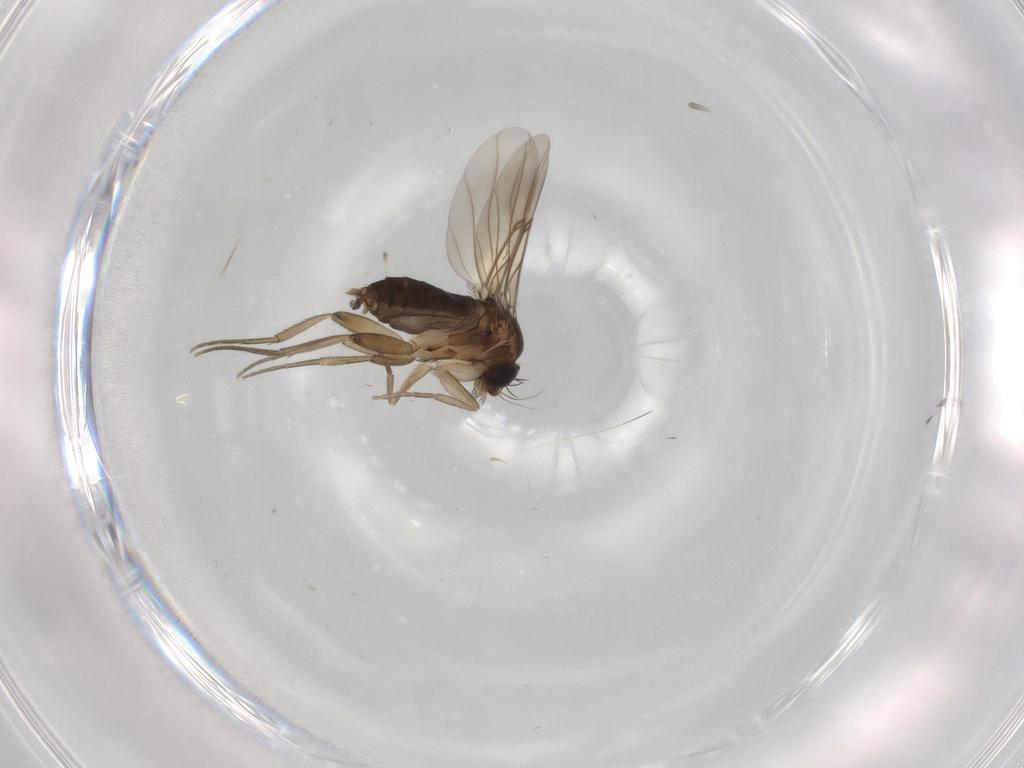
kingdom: Animalia
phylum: Arthropoda
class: Insecta
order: Diptera
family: Phoridae
